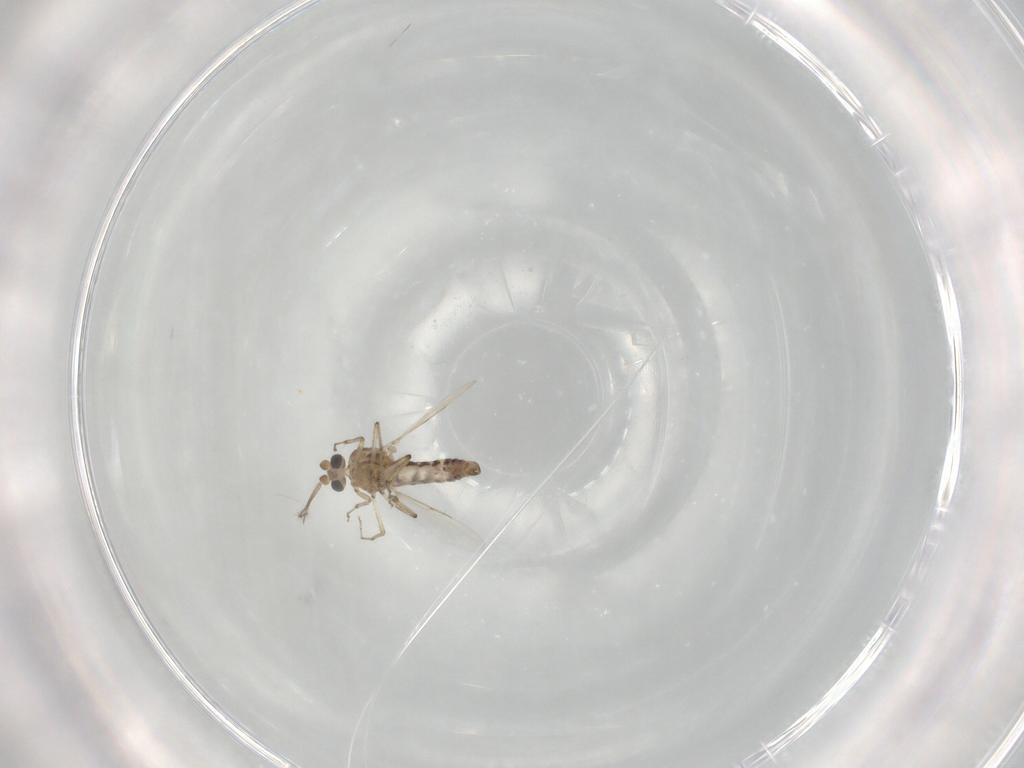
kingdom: Animalia
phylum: Arthropoda
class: Insecta
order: Diptera
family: Ceratopogonidae
